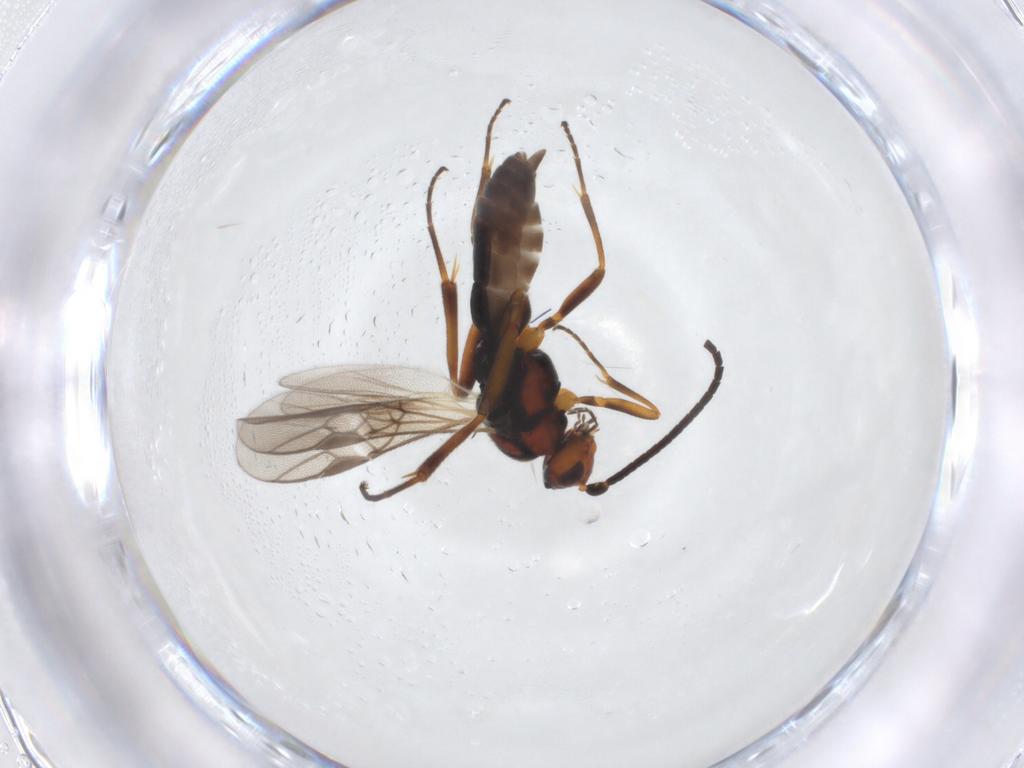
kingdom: Animalia
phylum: Arthropoda
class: Insecta
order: Hymenoptera
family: Braconidae
